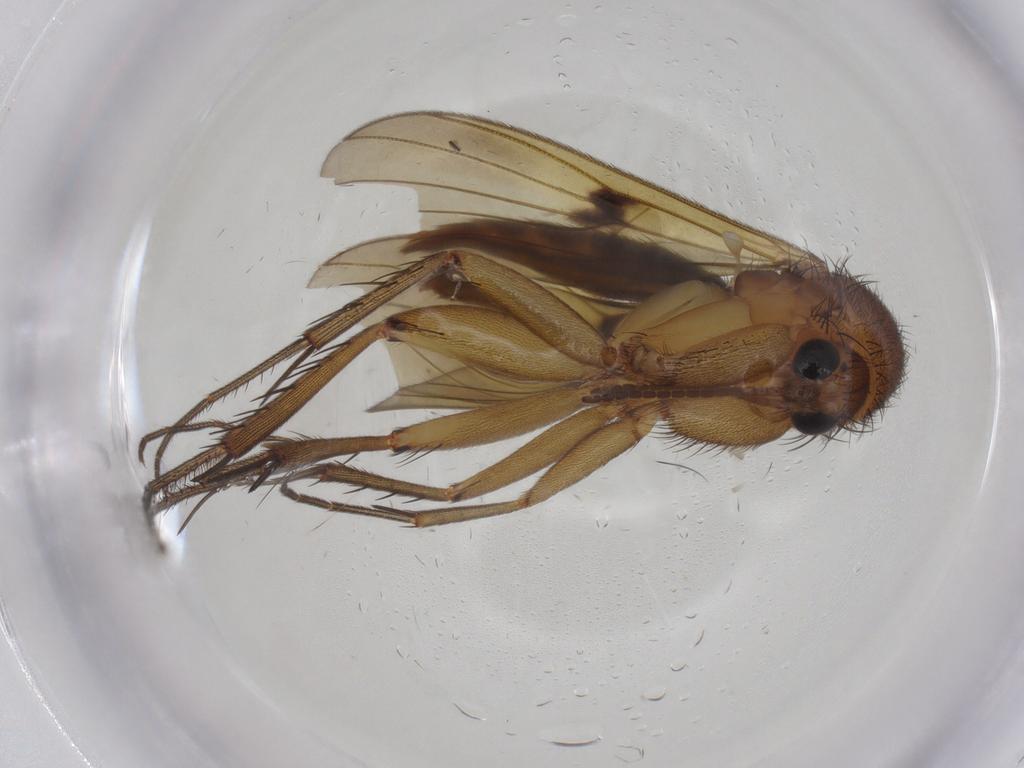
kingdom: Animalia
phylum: Arthropoda
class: Insecta
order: Diptera
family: Mycetophilidae
